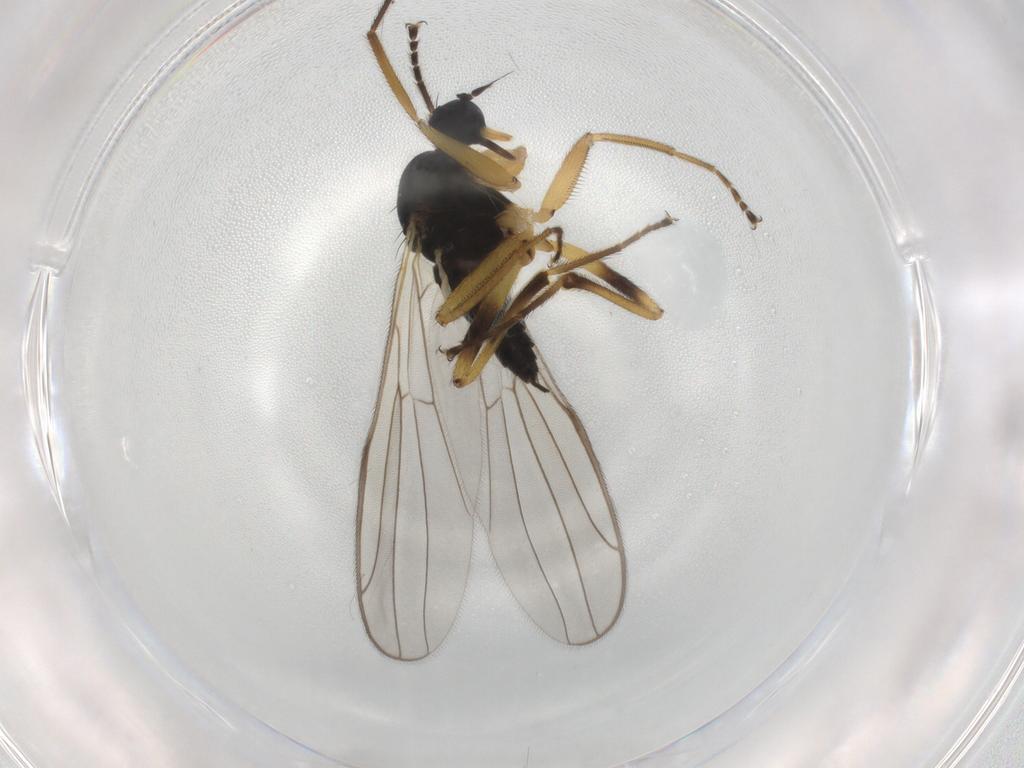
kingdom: Animalia
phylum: Arthropoda
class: Insecta
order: Diptera
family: Hybotidae
